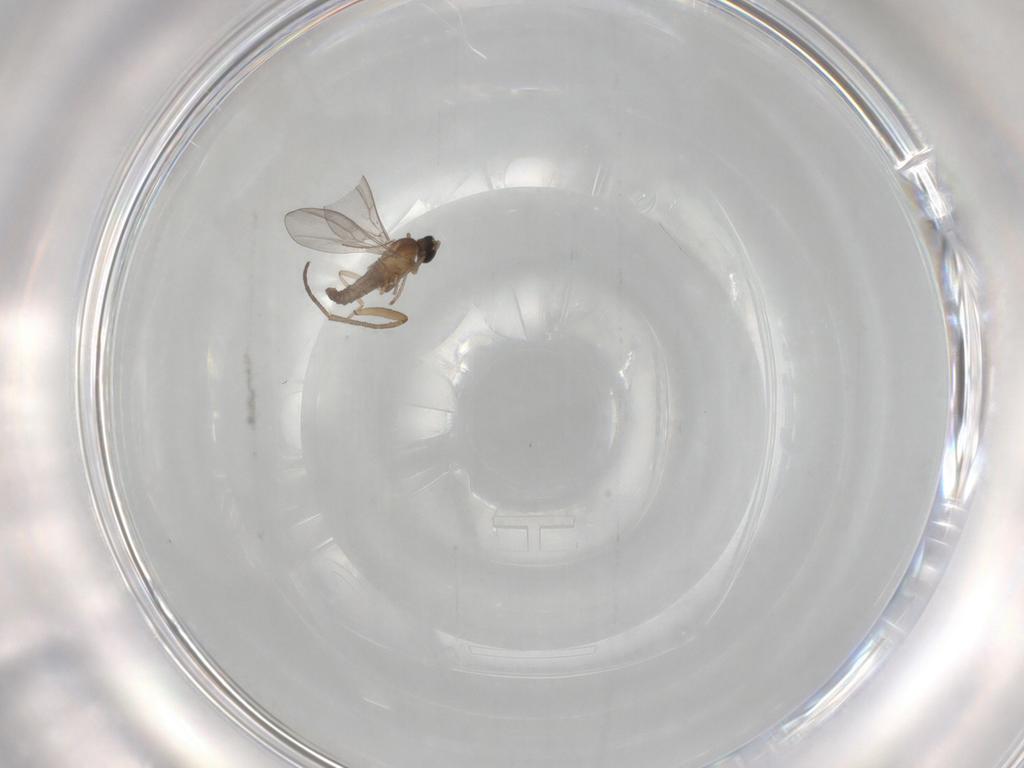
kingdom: Animalia
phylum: Arthropoda
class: Insecta
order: Diptera
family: Cecidomyiidae
